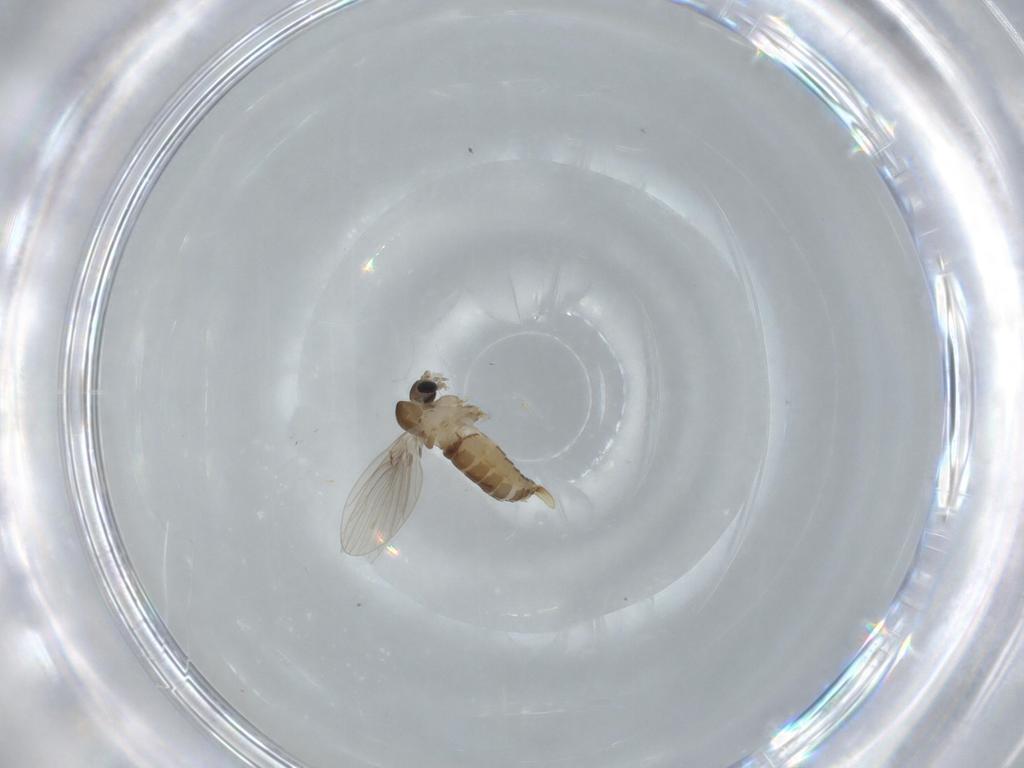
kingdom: Animalia
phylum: Arthropoda
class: Insecta
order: Diptera
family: Psychodidae
